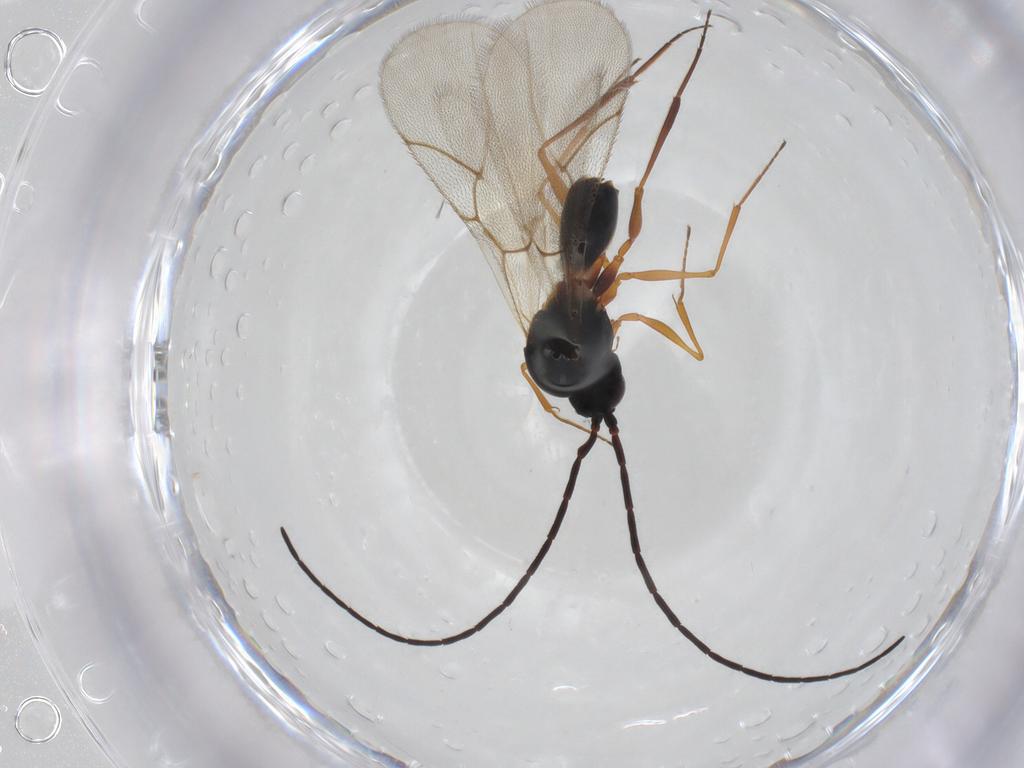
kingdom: Animalia
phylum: Arthropoda
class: Insecta
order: Hymenoptera
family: Figitidae
